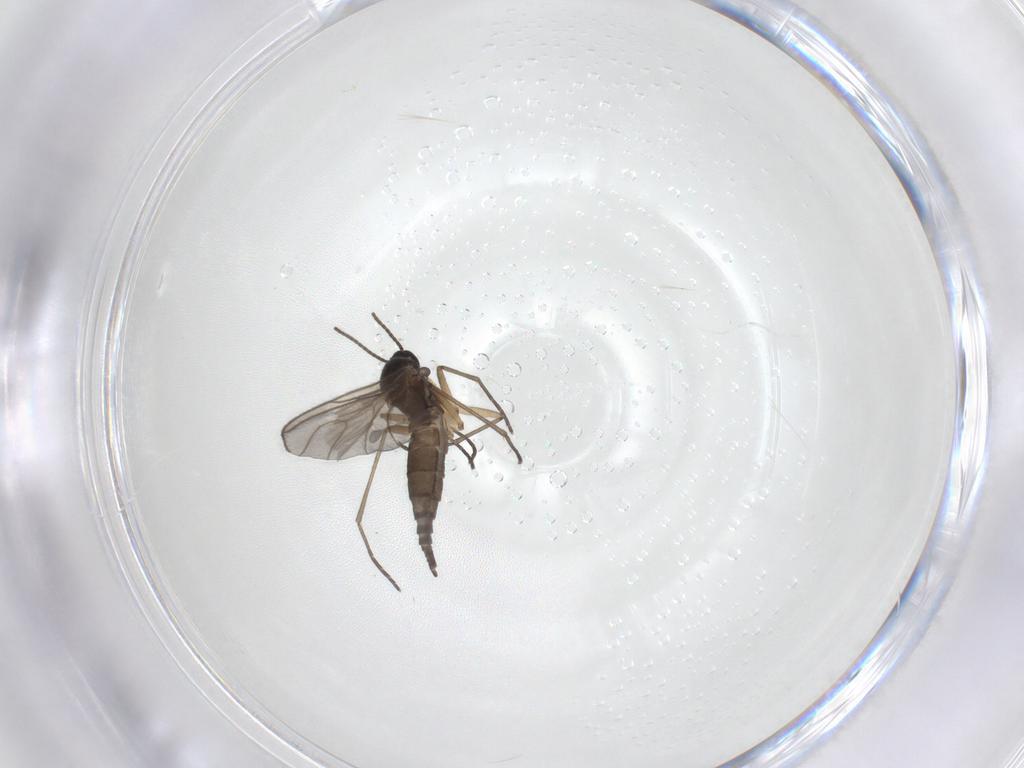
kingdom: Animalia
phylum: Arthropoda
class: Insecta
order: Diptera
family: Sciaridae
